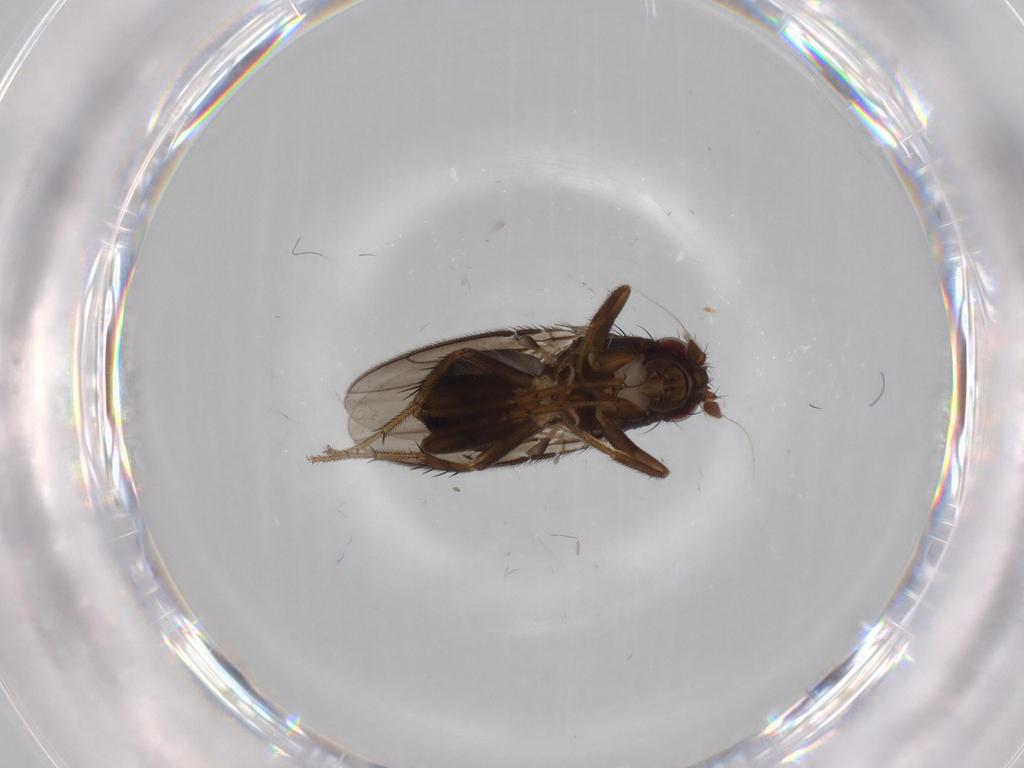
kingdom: Animalia
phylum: Arthropoda
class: Insecta
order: Diptera
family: Sphaeroceridae
